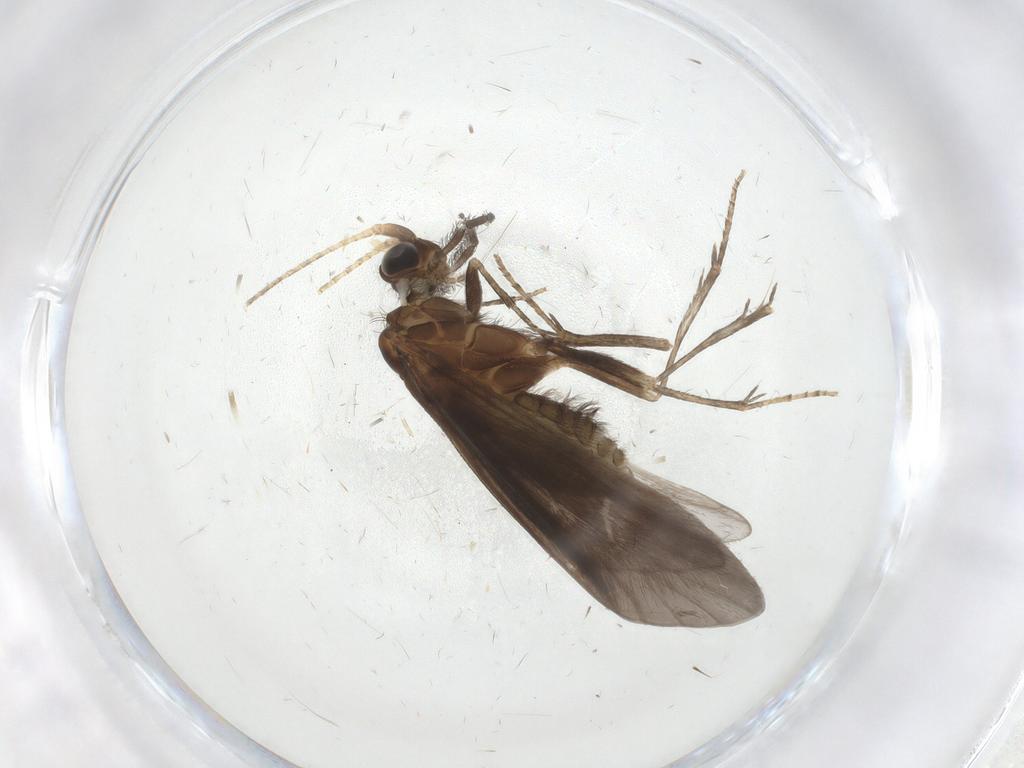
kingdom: Animalia
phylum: Arthropoda
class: Insecta
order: Trichoptera
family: Helicopsychidae
